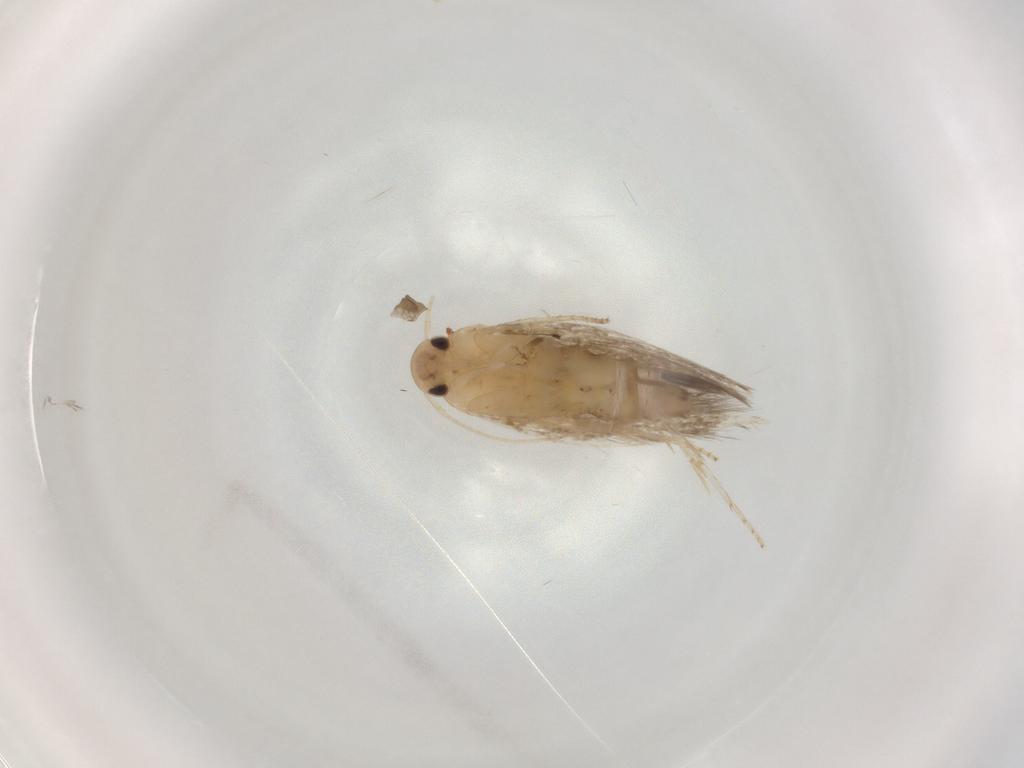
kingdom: Animalia
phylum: Arthropoda
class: Insecta
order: Lepidoptera
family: Elachistidae
